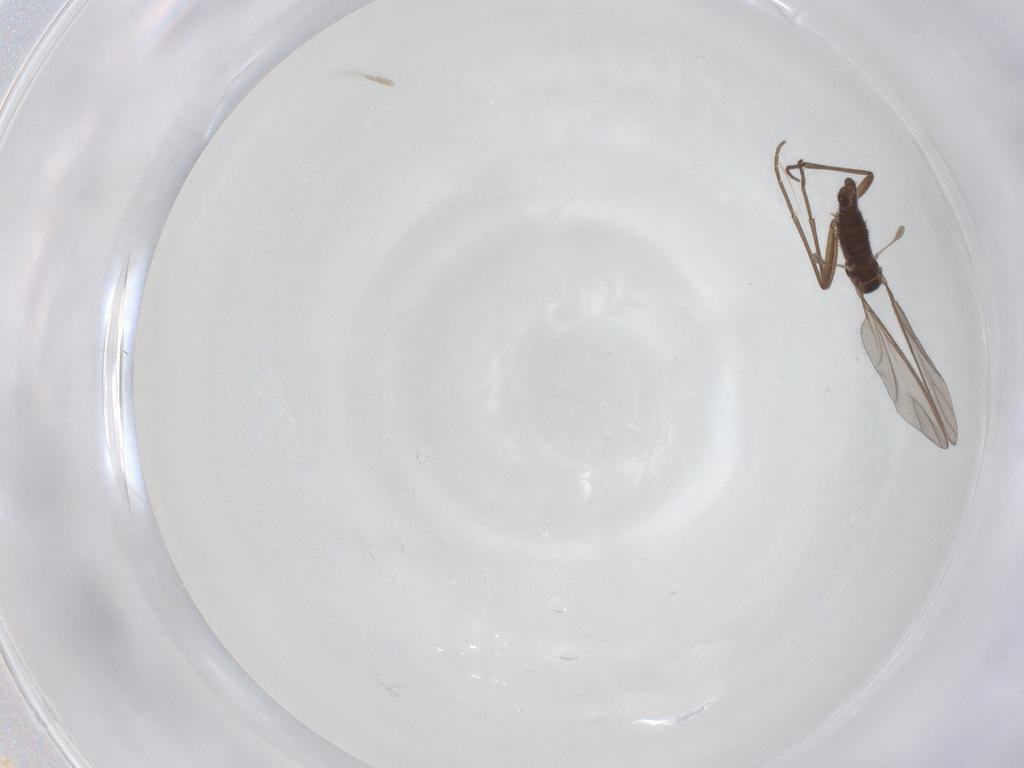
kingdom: Animalia
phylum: Arthropoda
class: Insecta
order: Diptera
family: Sciaridae
